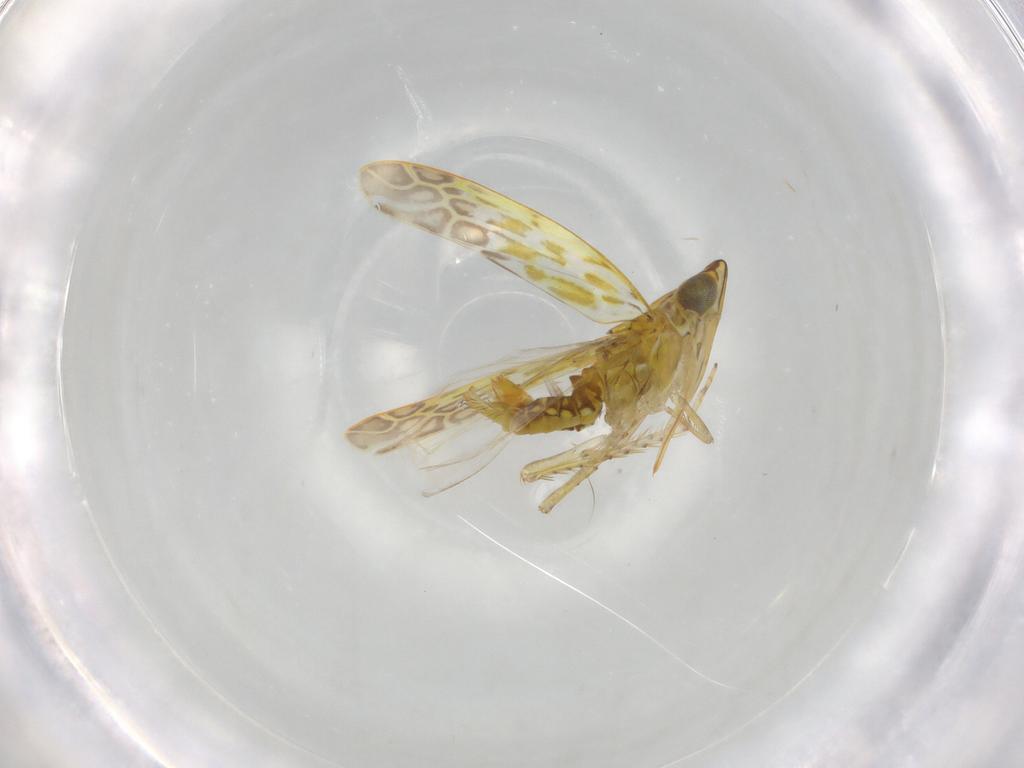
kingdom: Animalia
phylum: Arthropoda
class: Insecta
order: Hemiptera
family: Cicadellidae
